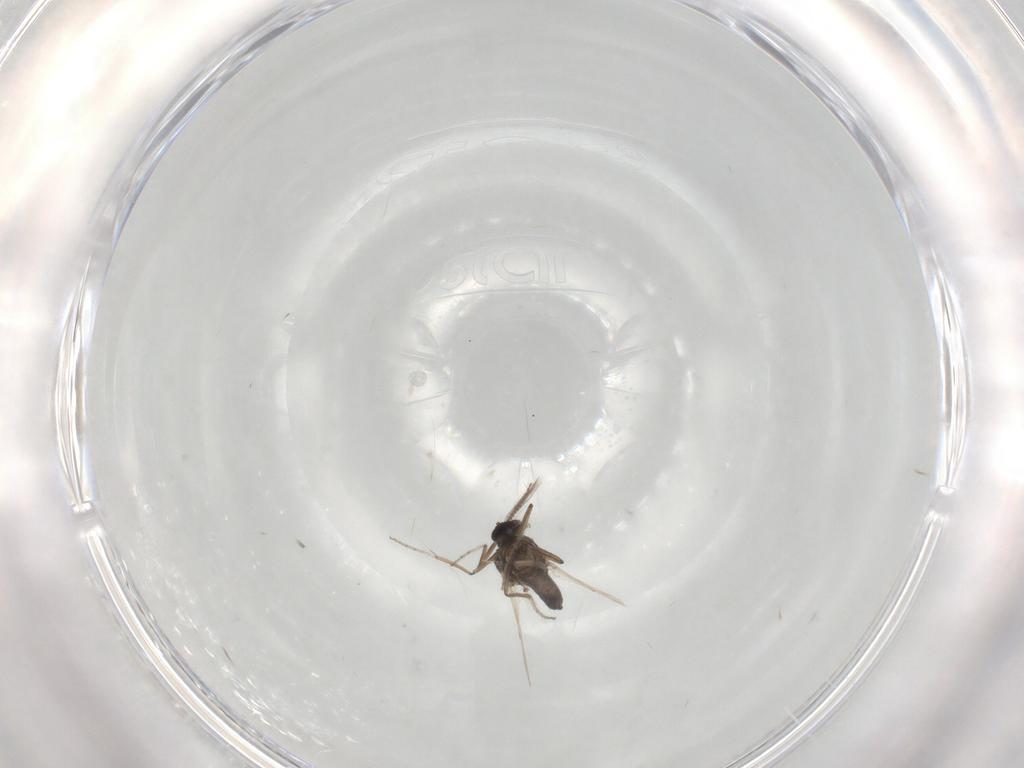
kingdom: Animalia
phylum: Arthropoda
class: Insecta
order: Diptera
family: Ceratopogonidae
